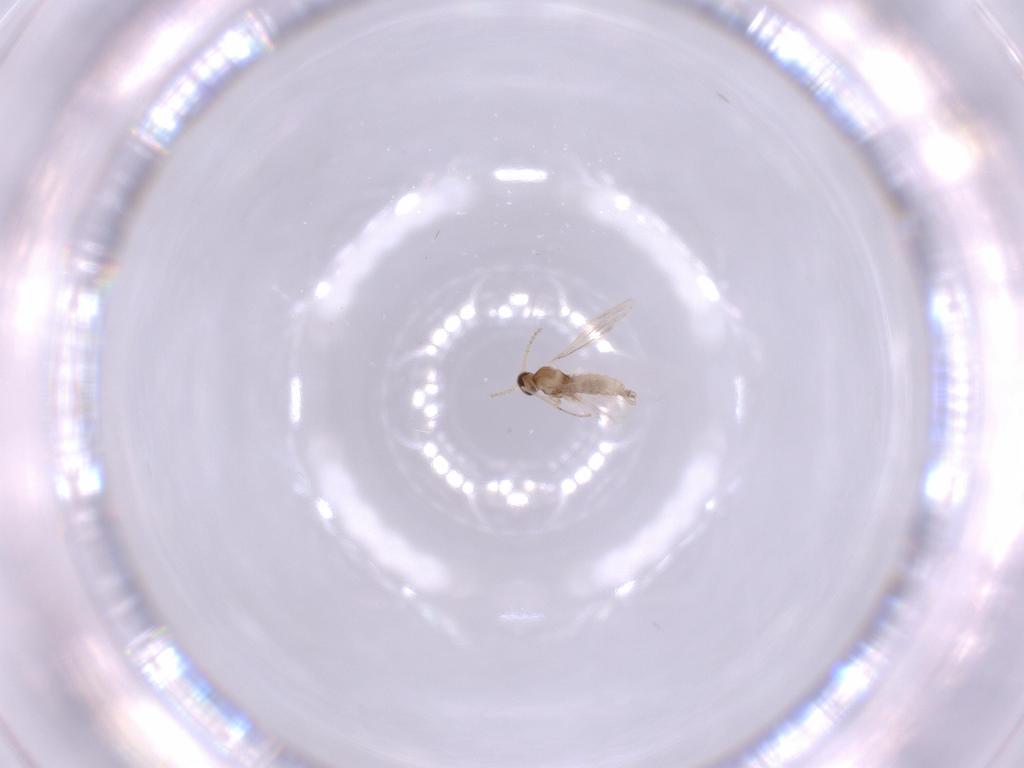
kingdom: Animalia
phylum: Arthropoda
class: Insecta
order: Diptera
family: Cecidomyiidae
